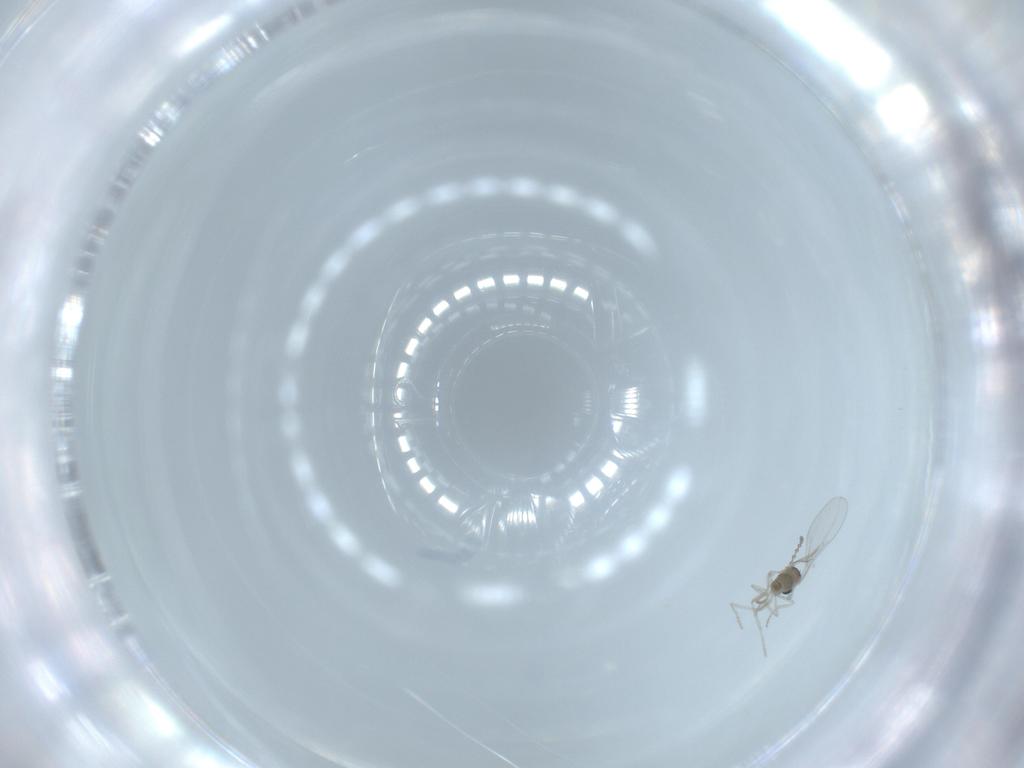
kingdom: Animalia
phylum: Arthropoda
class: Insecta
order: Diptera
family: Cecidomyiidae
